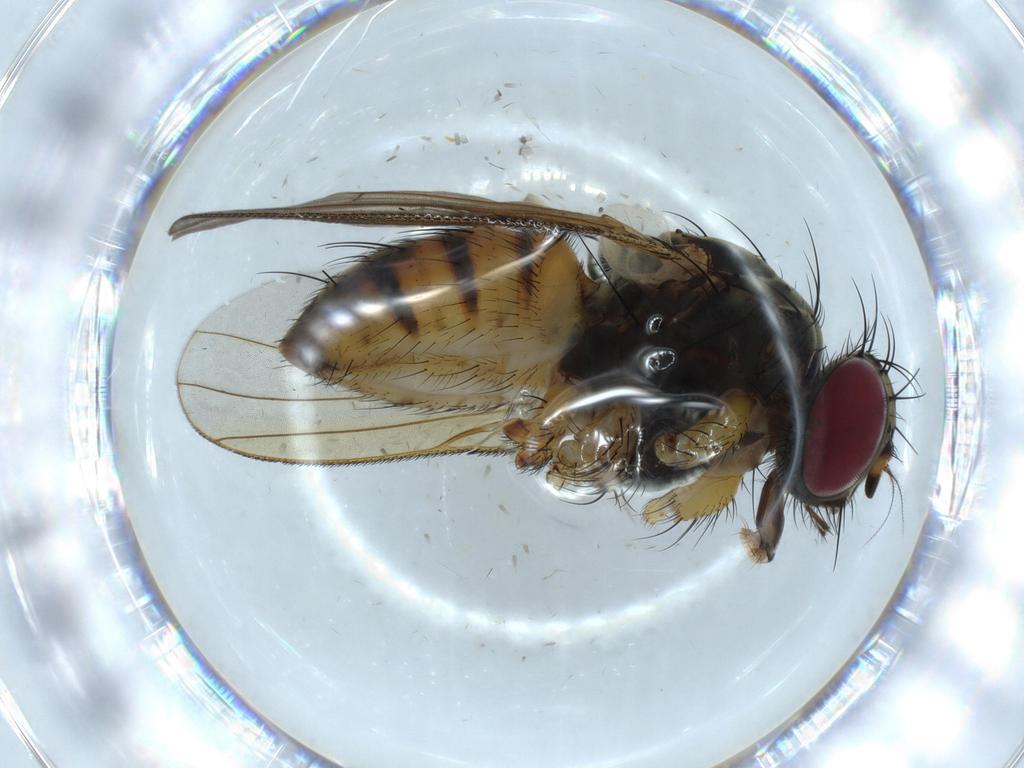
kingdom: Animalia
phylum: Arthropoda
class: Insecta
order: Diptera
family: Muscidae
